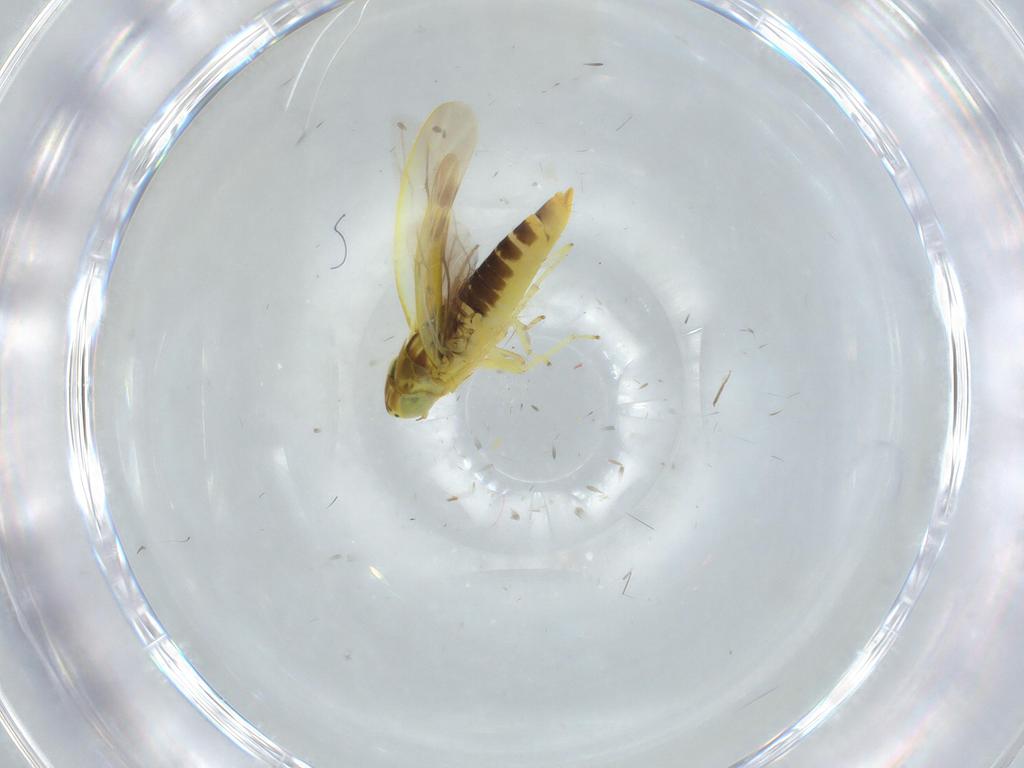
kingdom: Animalia
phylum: Arthropoda
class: Insecta
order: Hemiptera
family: Cicadellidae
